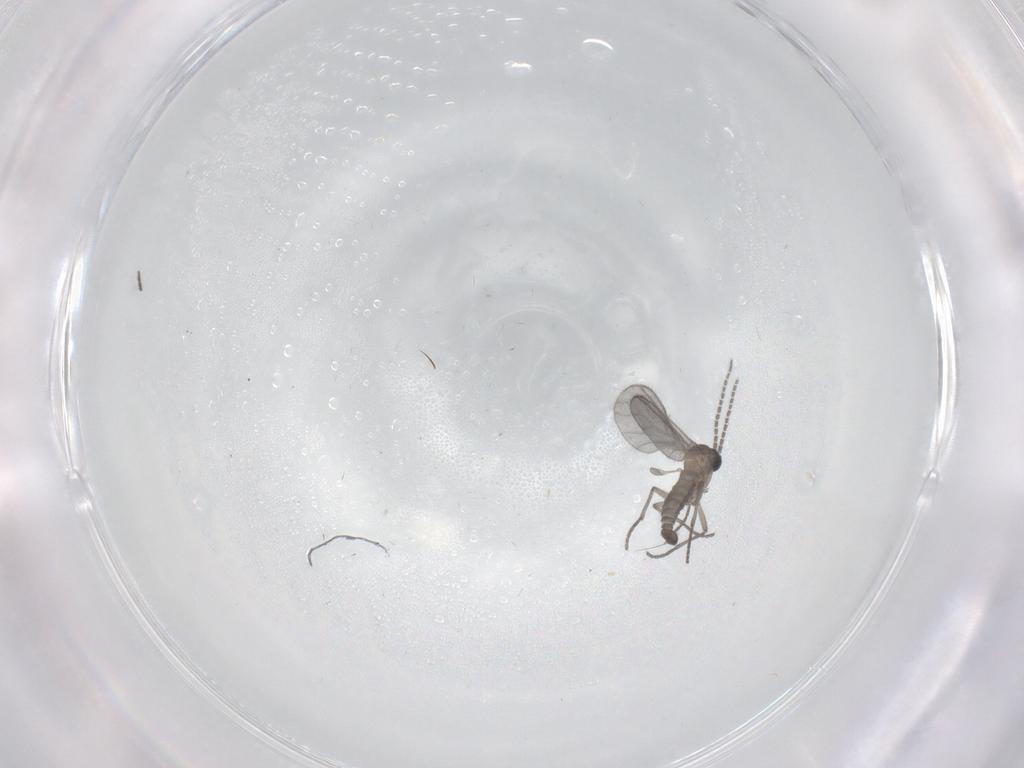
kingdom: Animalia
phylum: Arthropoda
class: Insecta
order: Diptera
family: Sciaridae
